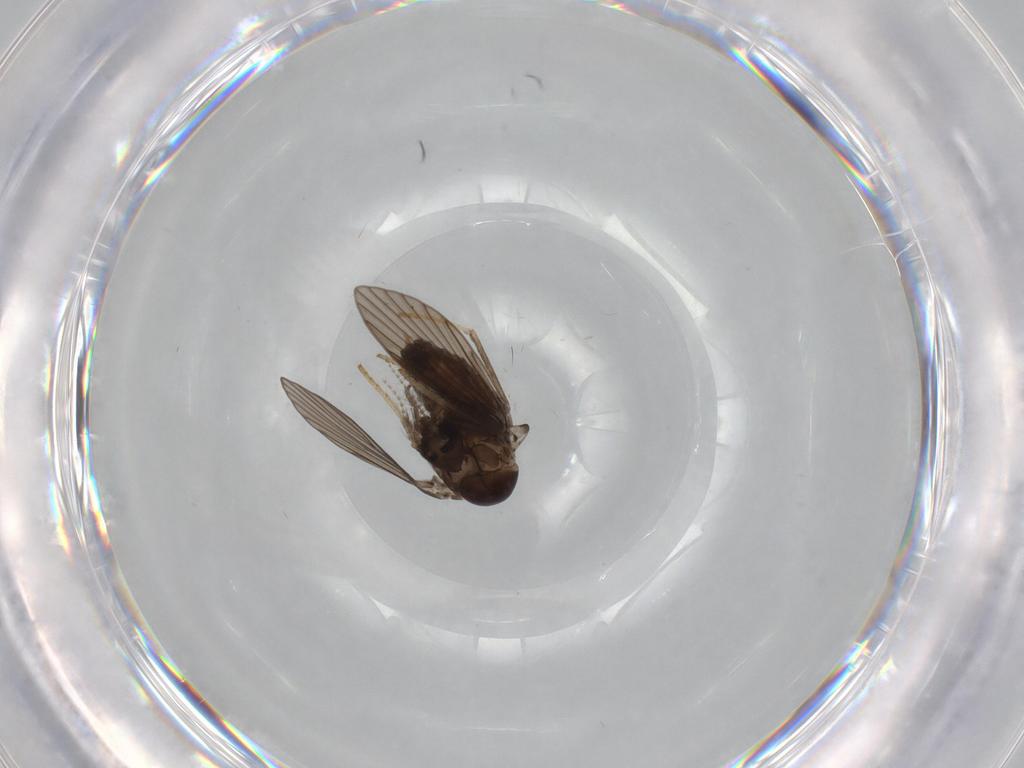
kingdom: Animalia
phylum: Arthropoda
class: Insecta
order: Diptera
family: Psychodidae
